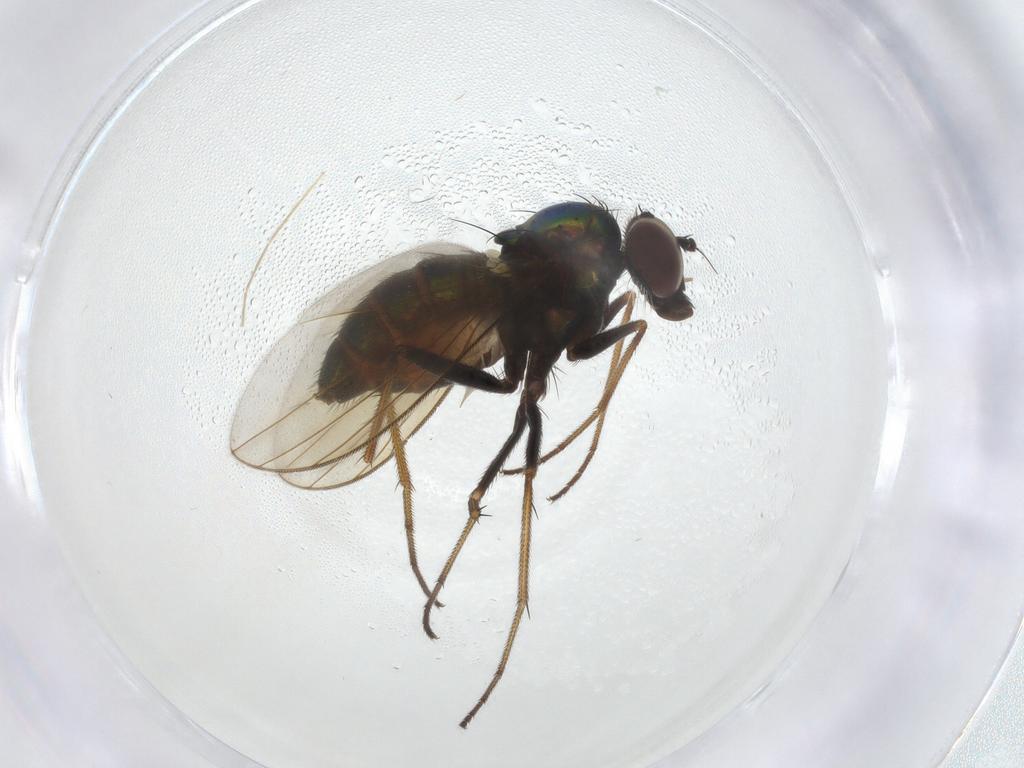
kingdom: Animalia
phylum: Arthropoda
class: Insecta
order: Diptera
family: Dolichopodidae
